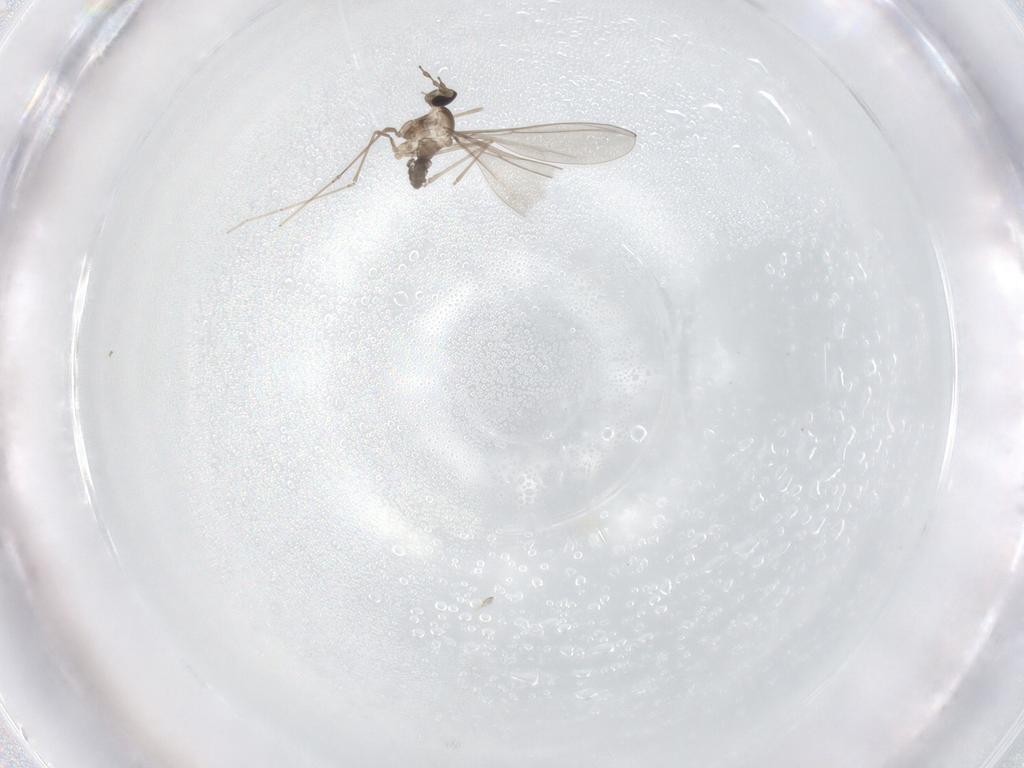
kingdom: Animalia
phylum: Arthropoda
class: Insecta
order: Diptera
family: Cecidomyiidae
